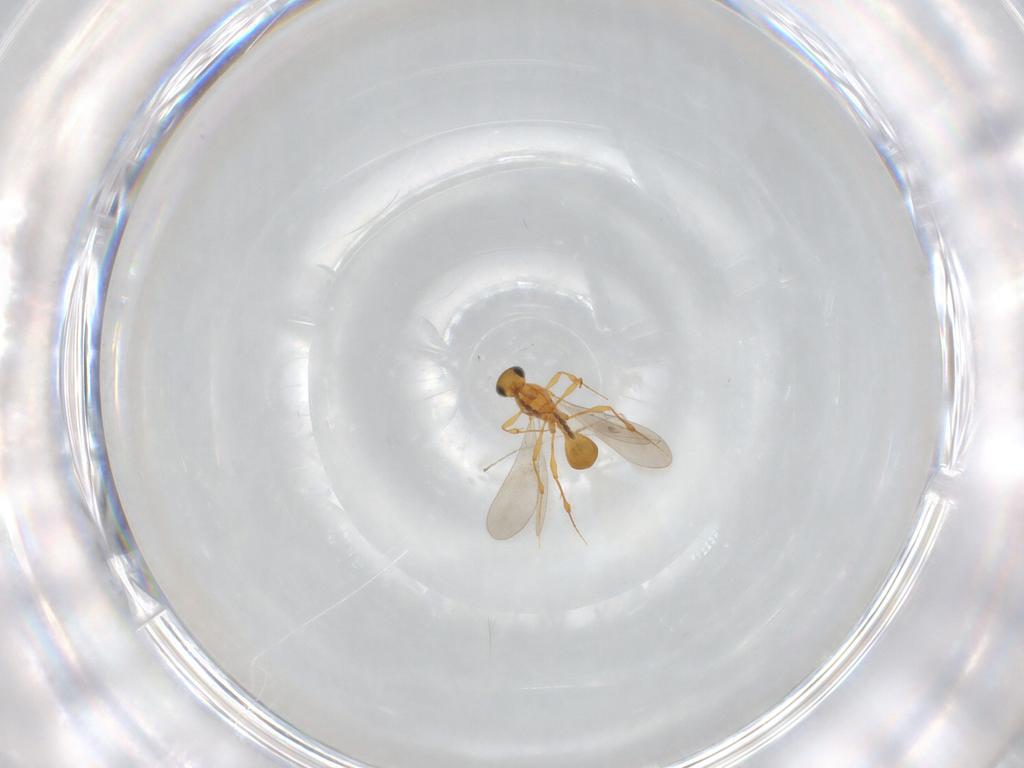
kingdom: Animalia
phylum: Arthropoda
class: Insecta
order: Hymenoptera
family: Platygastridae
